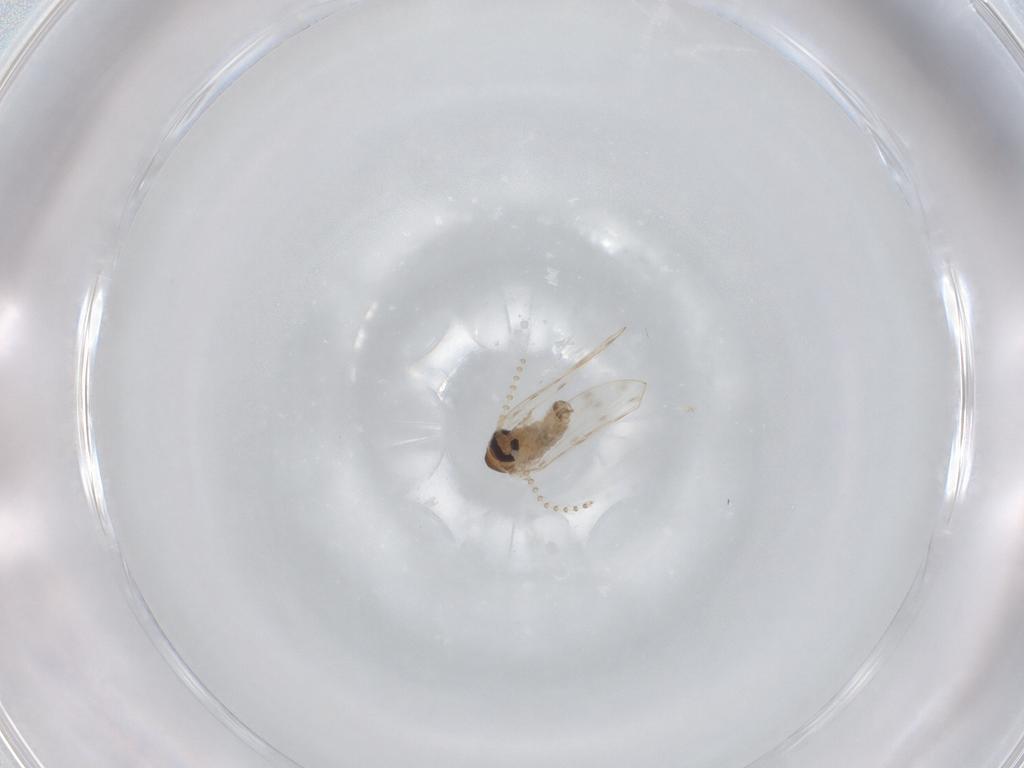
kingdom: Animalia
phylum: Arthropoda
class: Insecta
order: Diptera
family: Psychodidae
